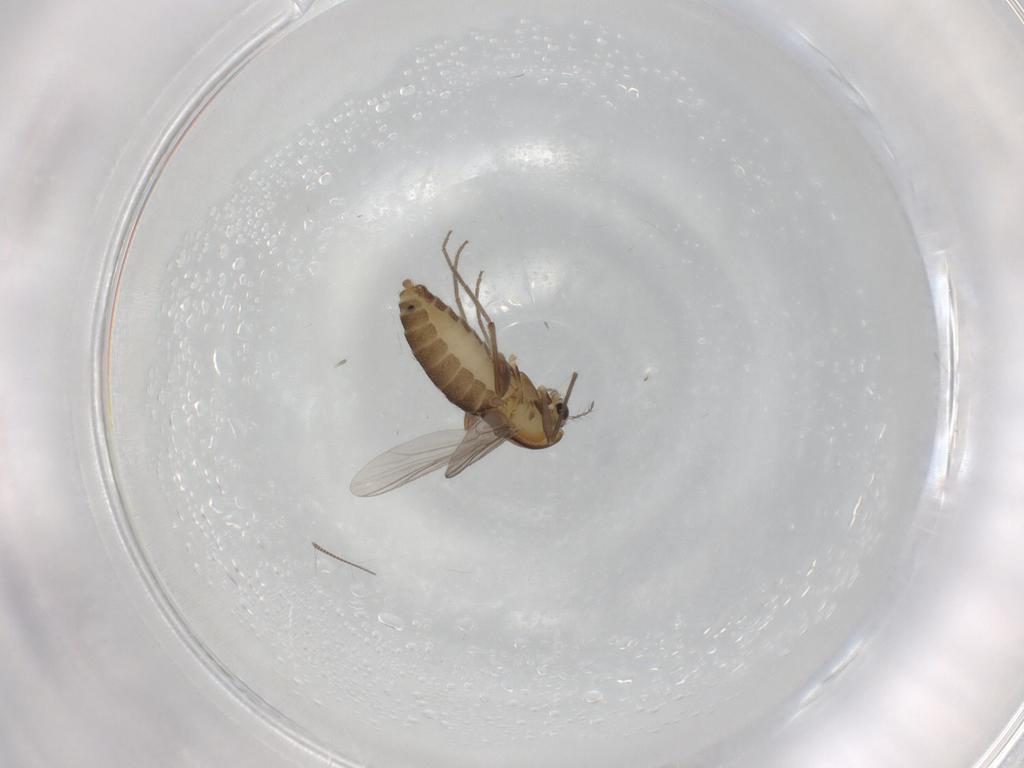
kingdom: Animalia
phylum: Arthropoda
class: Insecta
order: Diptera
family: Chironomidae
